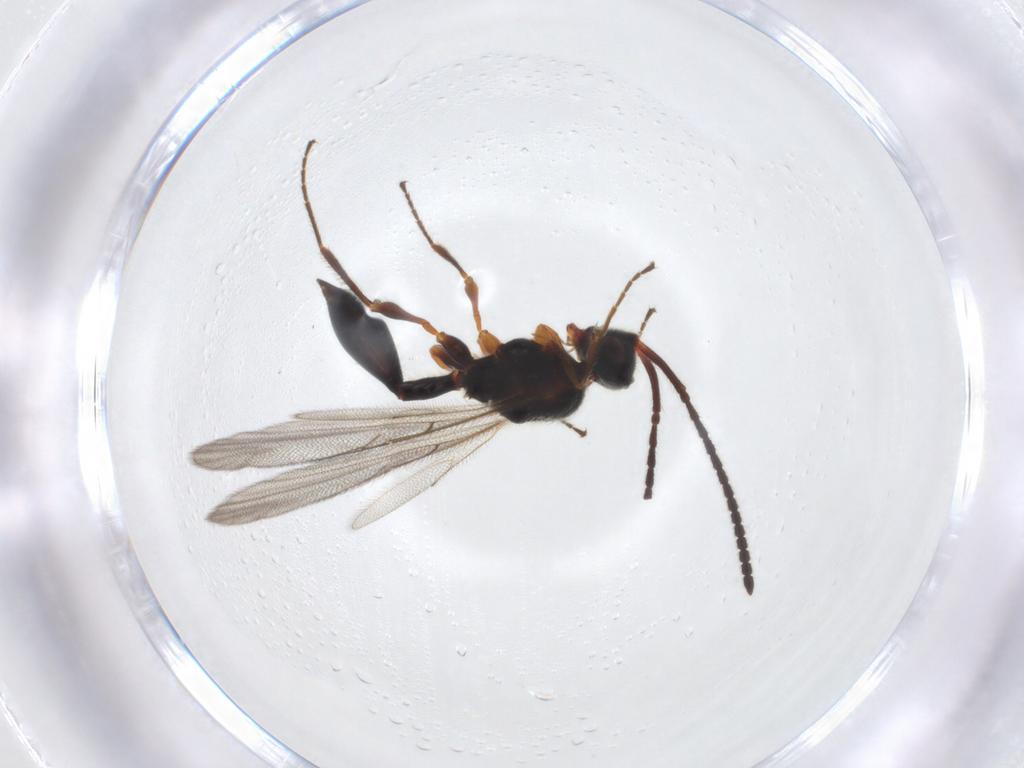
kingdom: Animalia
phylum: Arthropoda
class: Insecta
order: Hymenoptera
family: Diapriidae
